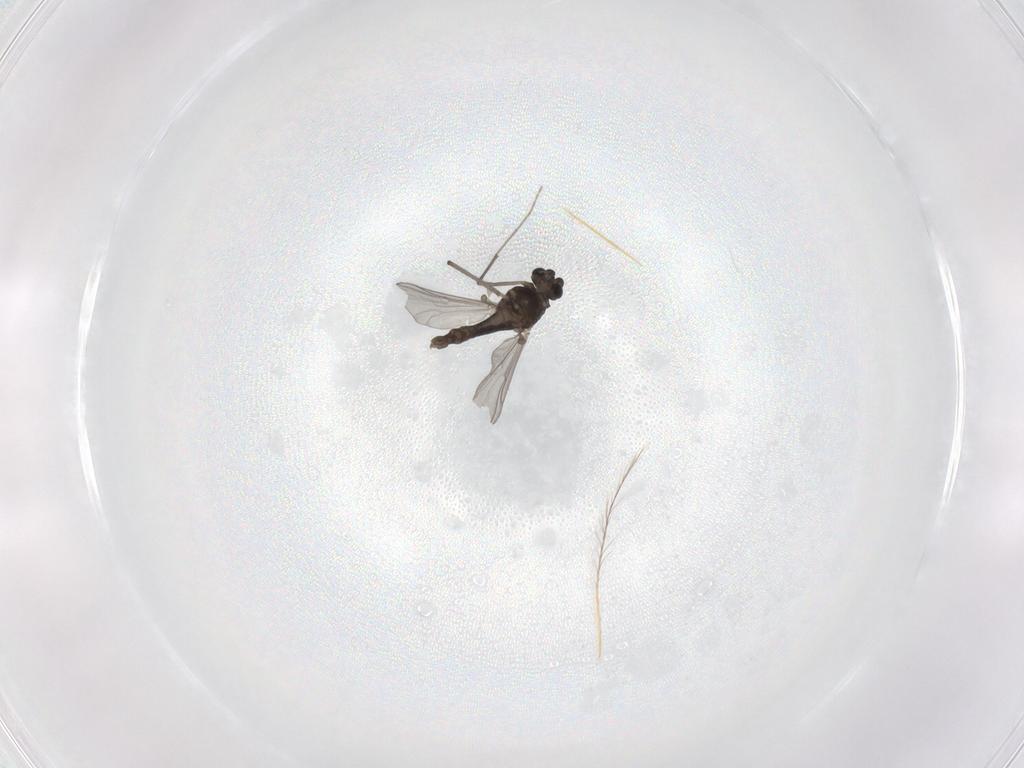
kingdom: Animalia
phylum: Arthropoda
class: Insecta
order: Diptera
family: Chironomidae
